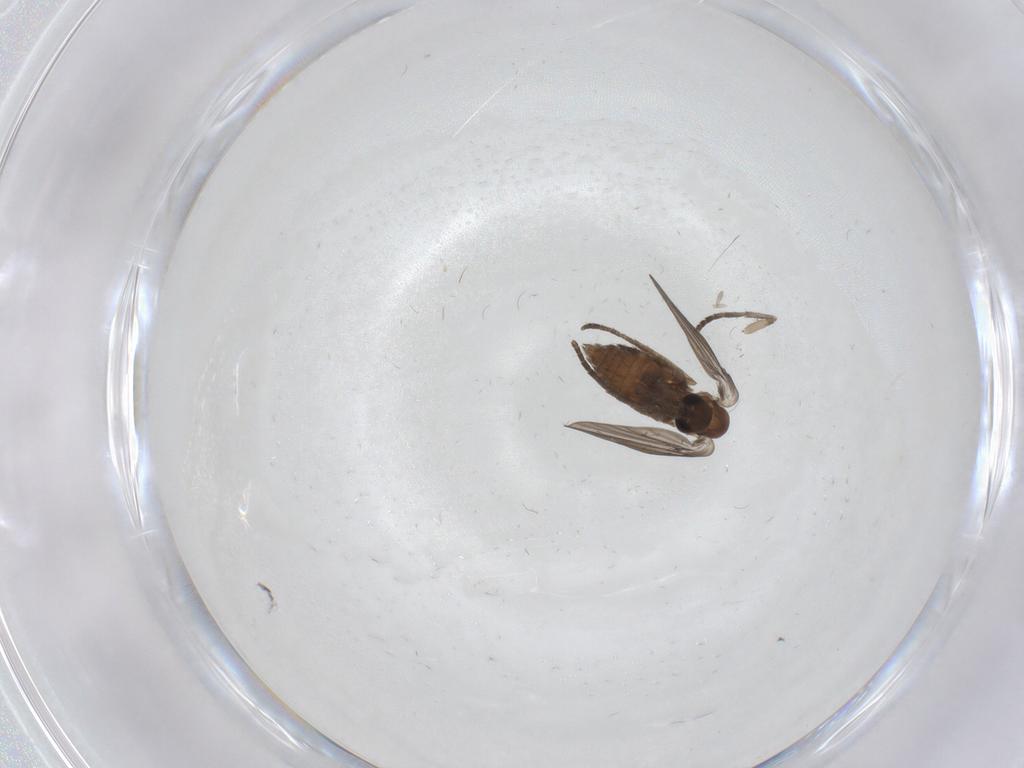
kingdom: Animalia
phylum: Arthropoda
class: Insecta
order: Diptera
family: Psychodidae
